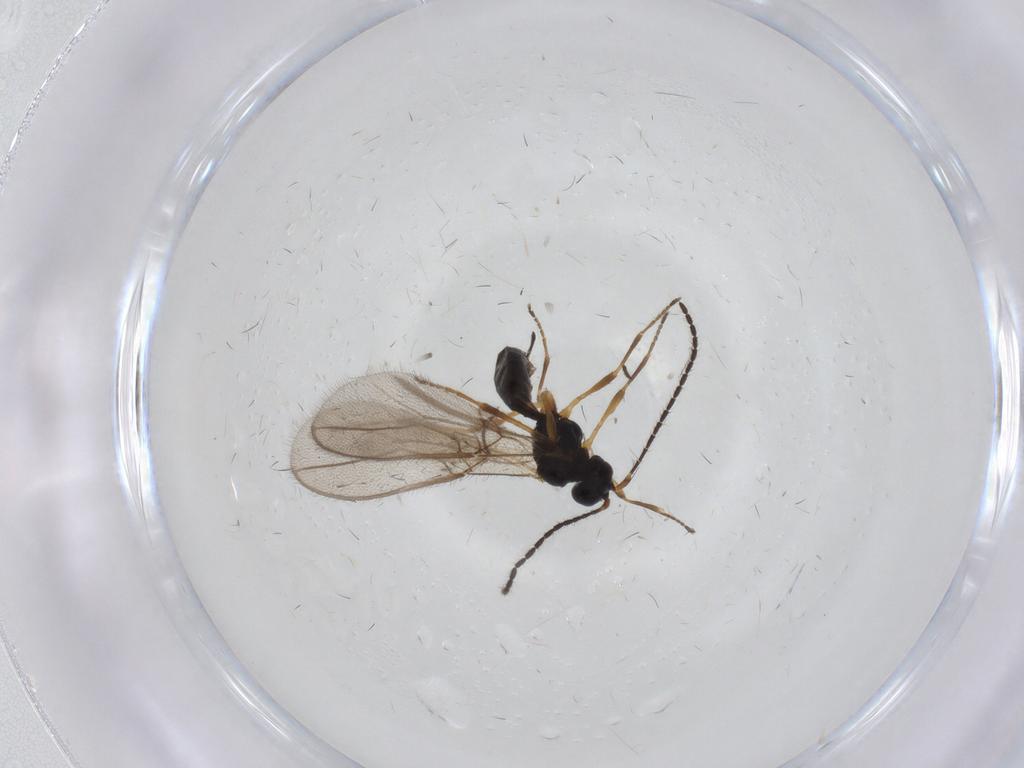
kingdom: Animalia
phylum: Arthropoda
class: Insecta
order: Hymenoptera
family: Braconidae
